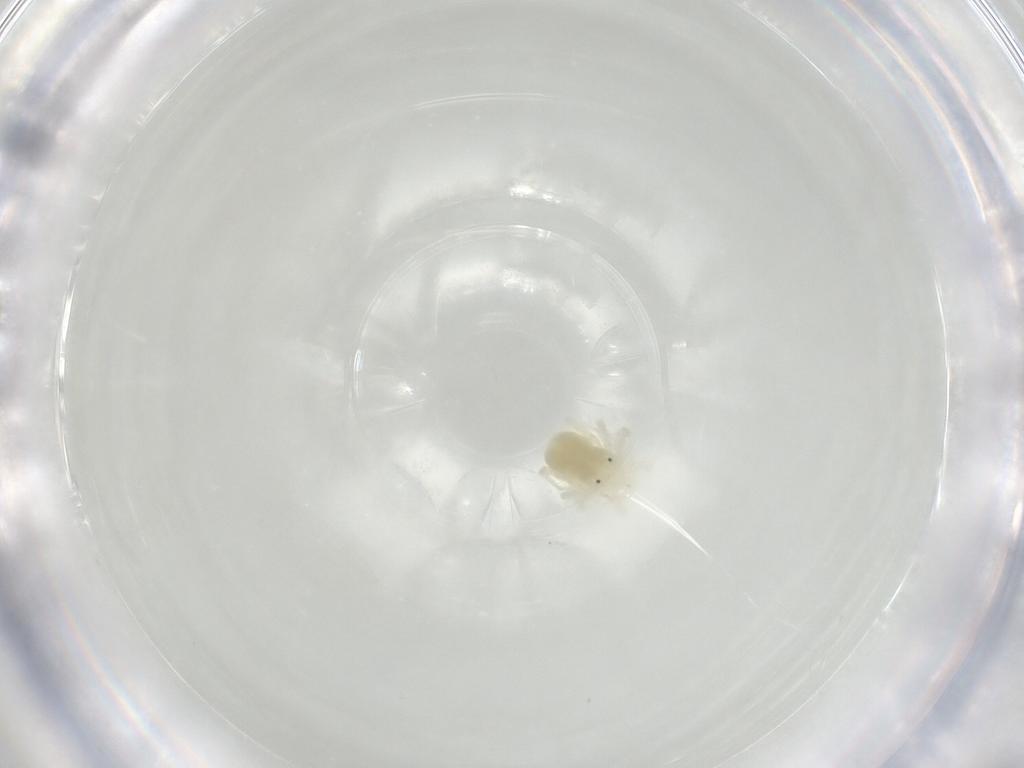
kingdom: Animalia
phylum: Arthropoda
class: Arachnida
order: Trombidiformes
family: Anystidae
